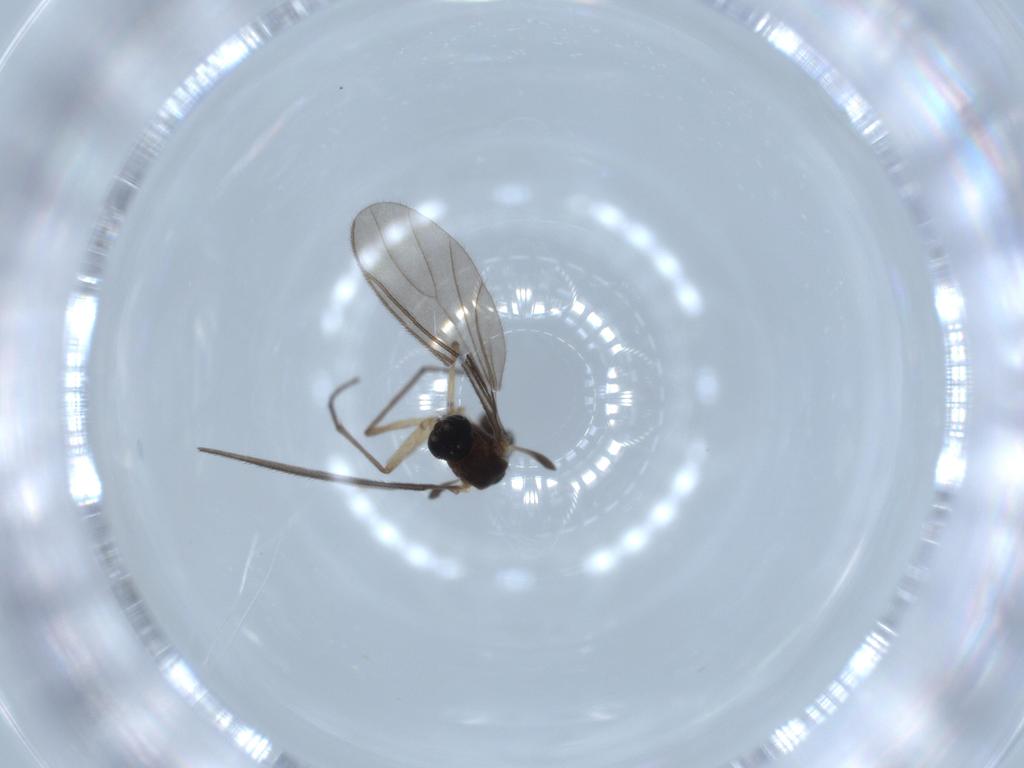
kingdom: Animalia
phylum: Arthropoda
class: Insecta
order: Diptera
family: Sciaridae
